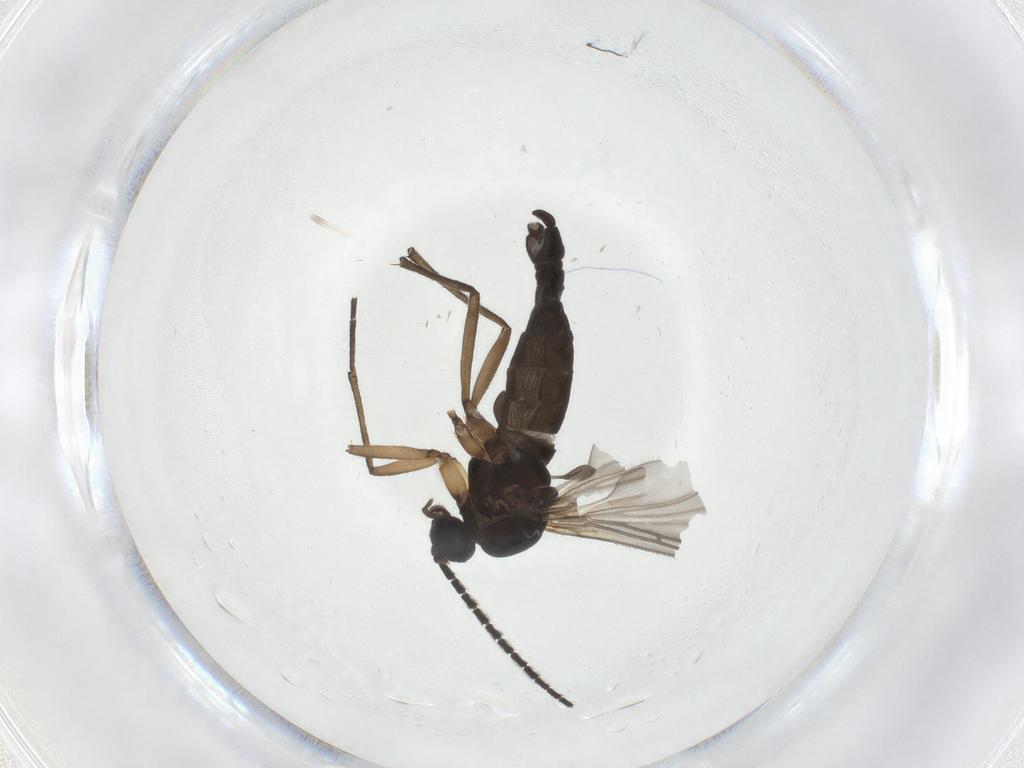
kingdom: Animalia
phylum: Arthropoda
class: Insecta
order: Diptera
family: Sciaridae
